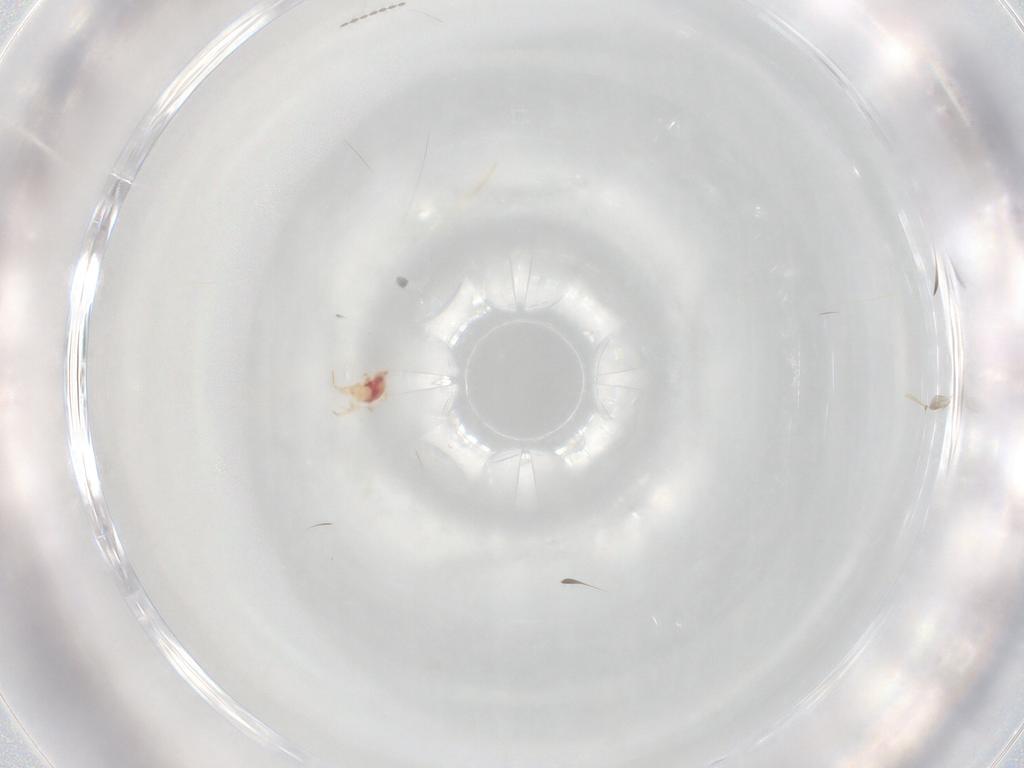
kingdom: Animalia
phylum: Arthropoda
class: Arachnida
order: Mesostigmata
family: Phytoseiidae
